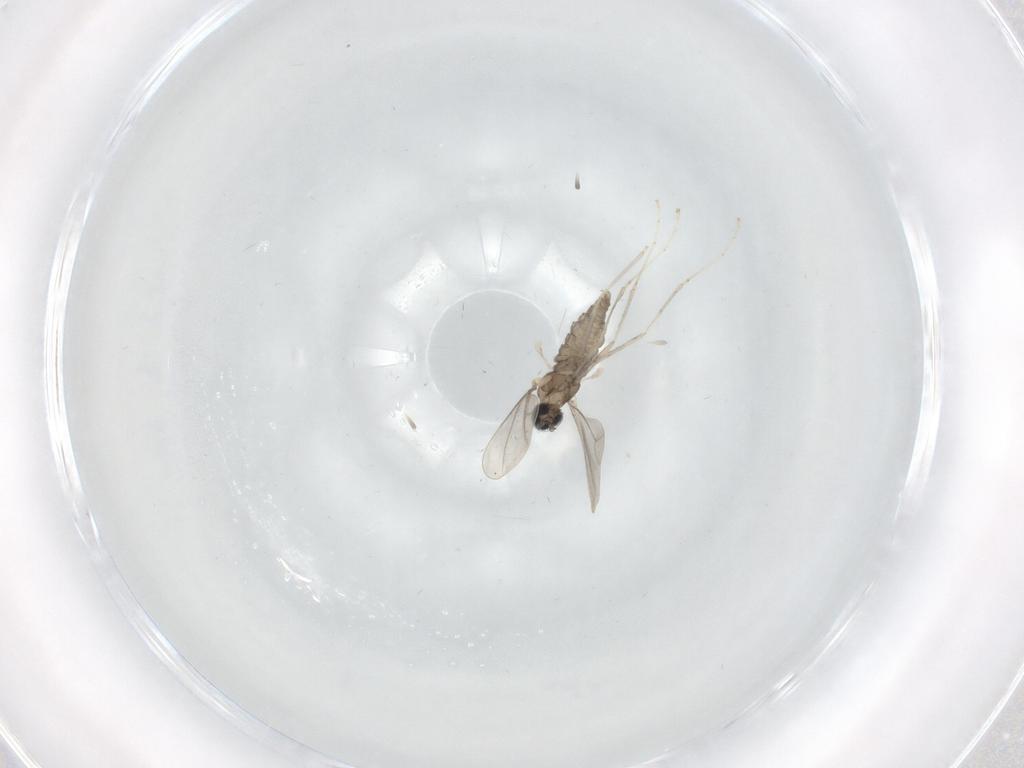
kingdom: Animalia
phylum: Arthropoda
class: Insecta
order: Diptera
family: Cecidomyiidae
